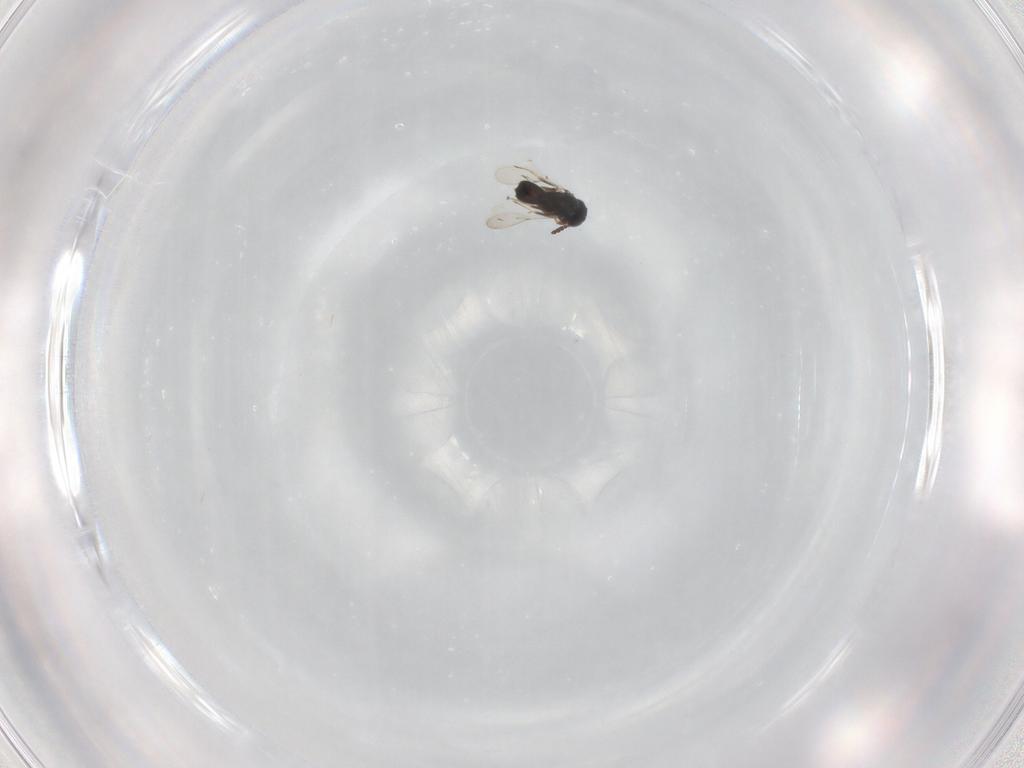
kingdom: Animalia
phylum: Arthropoda
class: Insecta
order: Hymenoptera
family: Scelionidae
